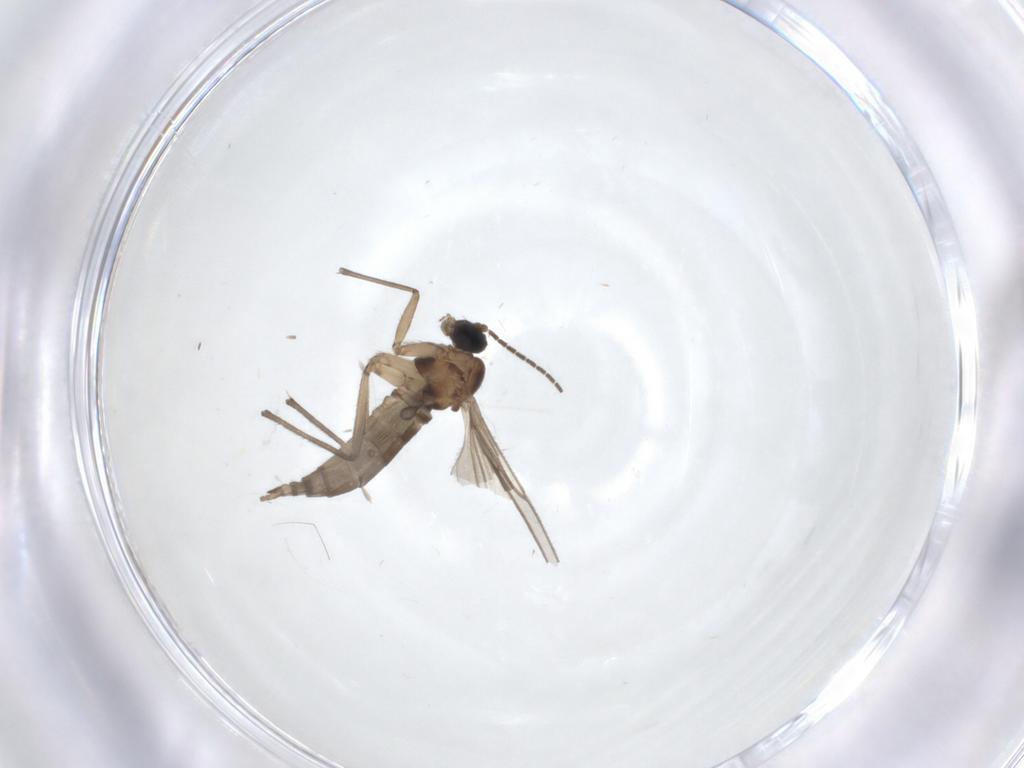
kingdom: Animalia
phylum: Arthropoda
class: Insecta
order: Diptera
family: Sciaridae
